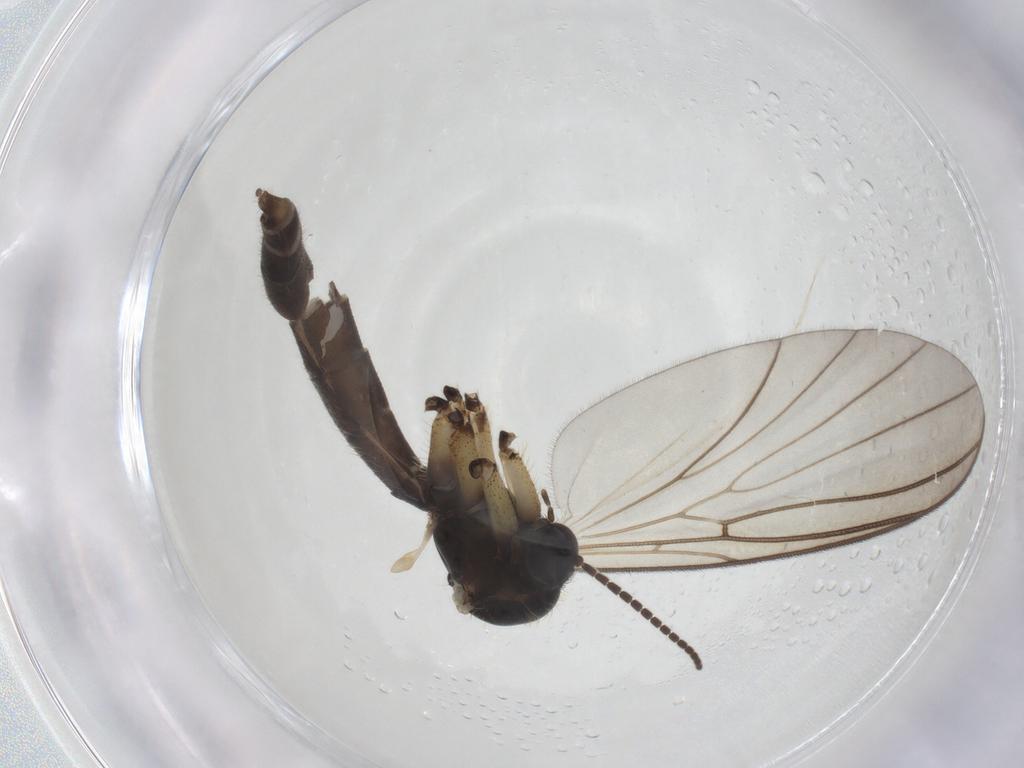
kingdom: Animalia
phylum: Arthropoda
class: Insecta
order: Diptera
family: Mycetophilidae
